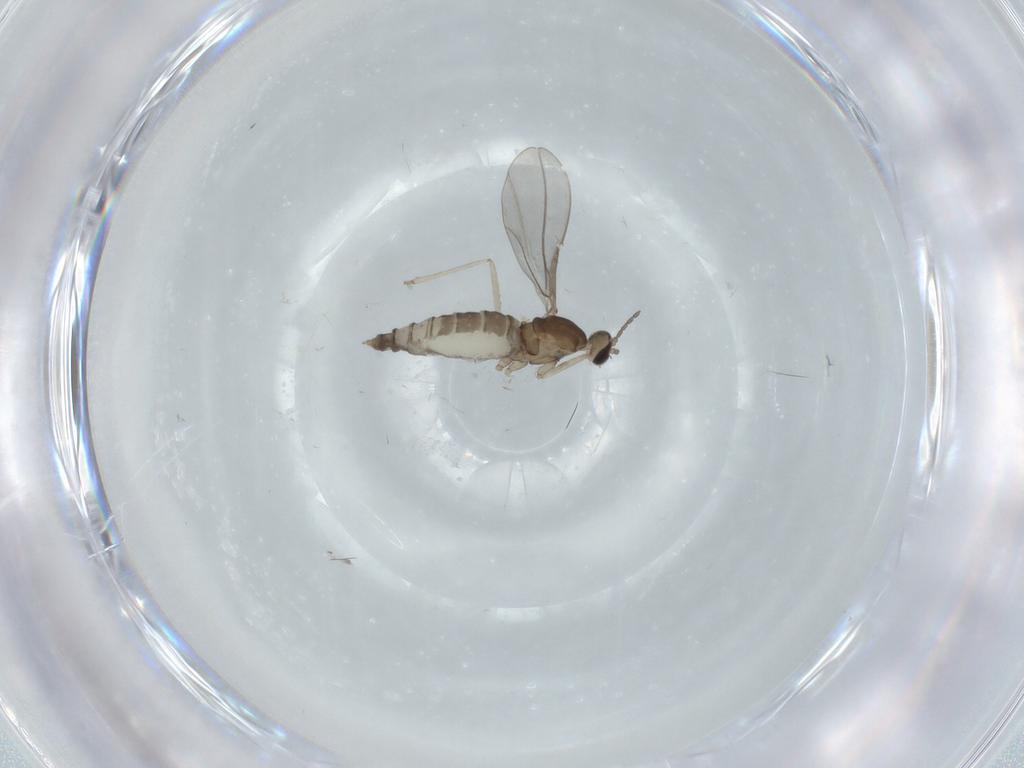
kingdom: Animalia
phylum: Arthropoda
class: Insecta
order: Diptera
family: Cecidomyiidae
